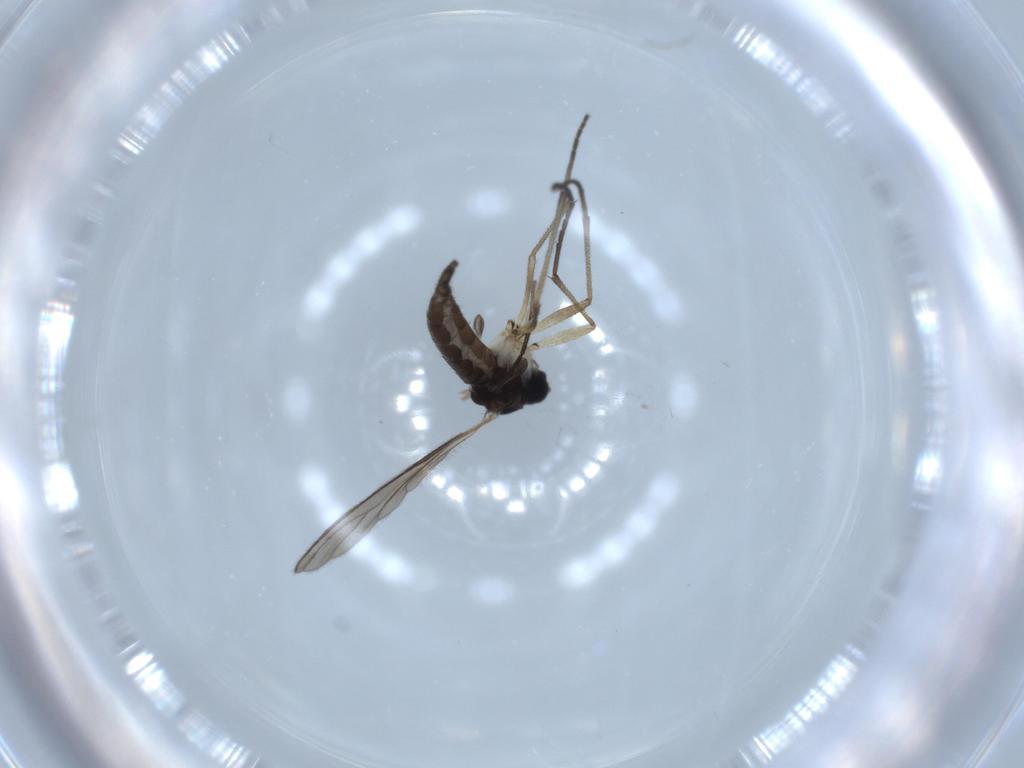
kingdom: Animalia
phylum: Arthropoda
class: Insecta
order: Diptera
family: Sciaridae
